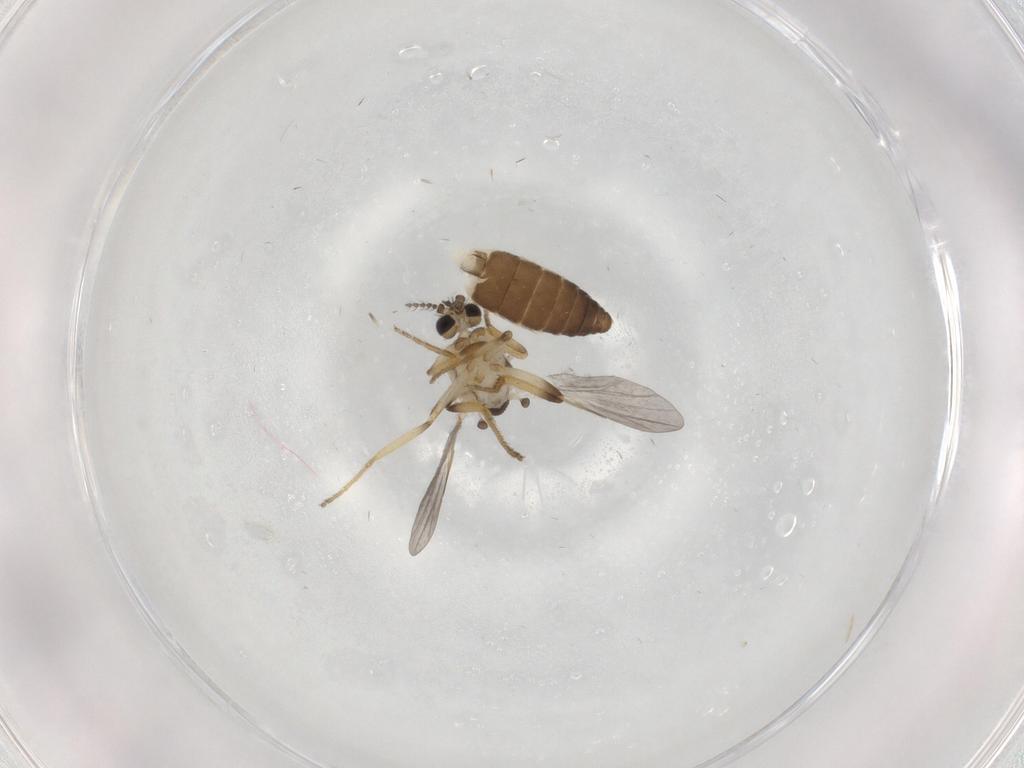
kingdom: Animalia
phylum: Arthropoda
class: Insecta
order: Diptera
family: Ceratopogonidae
